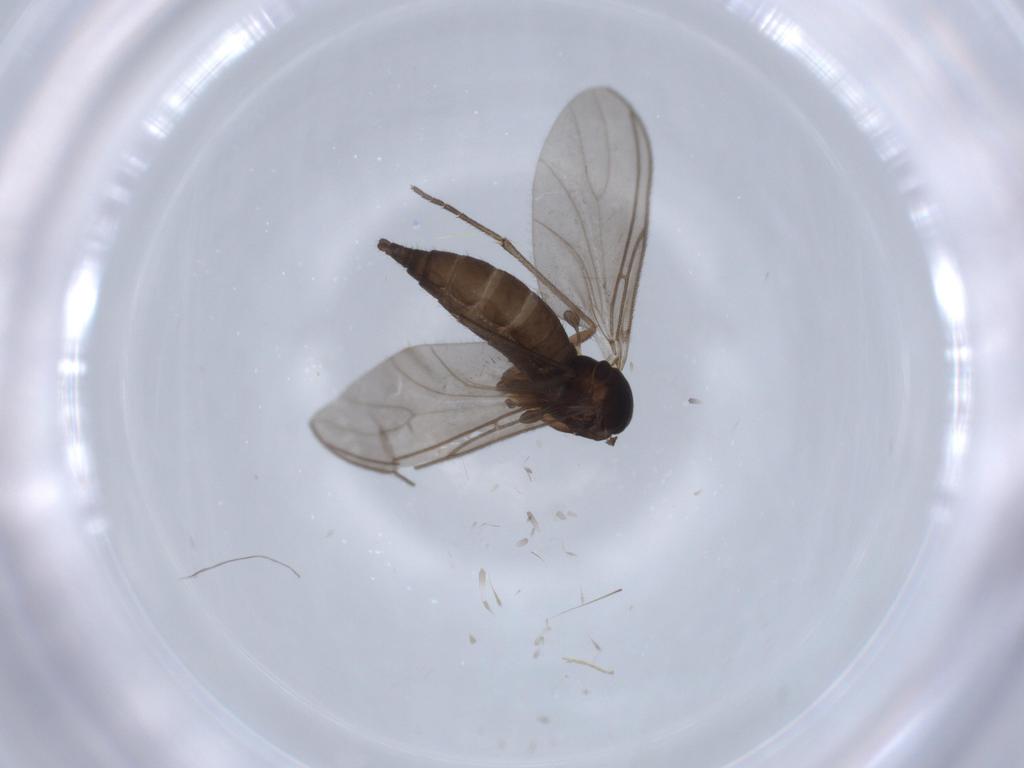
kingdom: Animalia
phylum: Arthropoda
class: Insecta
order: Diptera
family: Sciaridae
